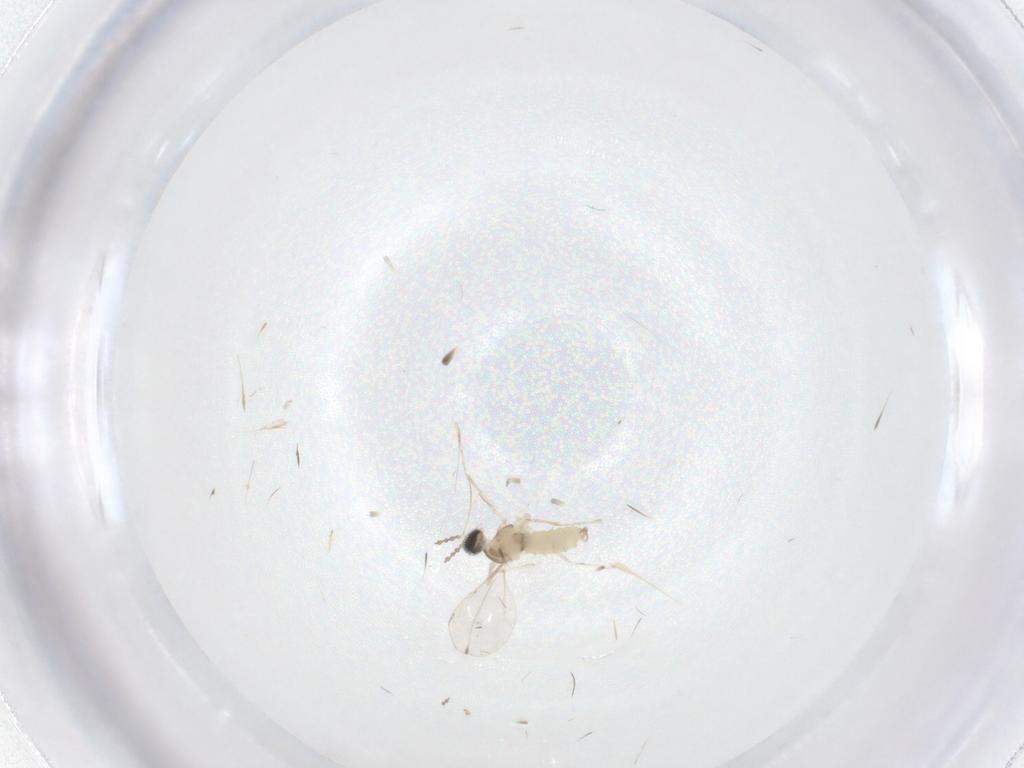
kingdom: Animalia
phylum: Arthropoda
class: Insecta
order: Diptera
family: Cecidomyiidae
